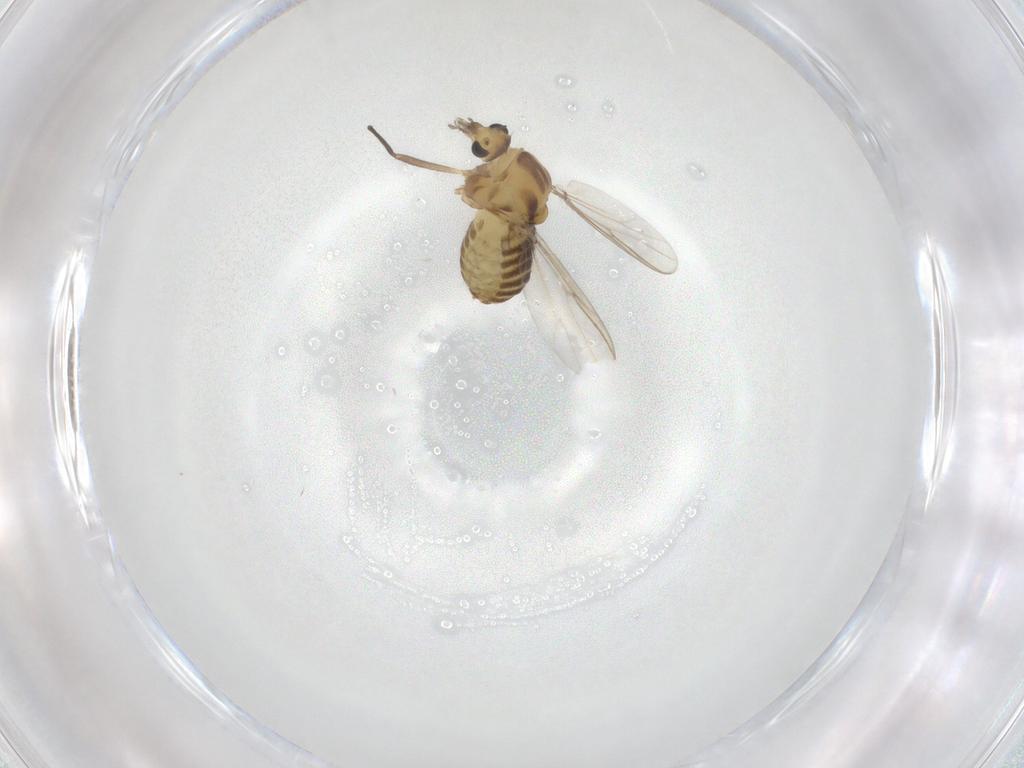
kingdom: Animalia
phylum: Arthropoda
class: Insecta
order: Diptera
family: Chironomidae
